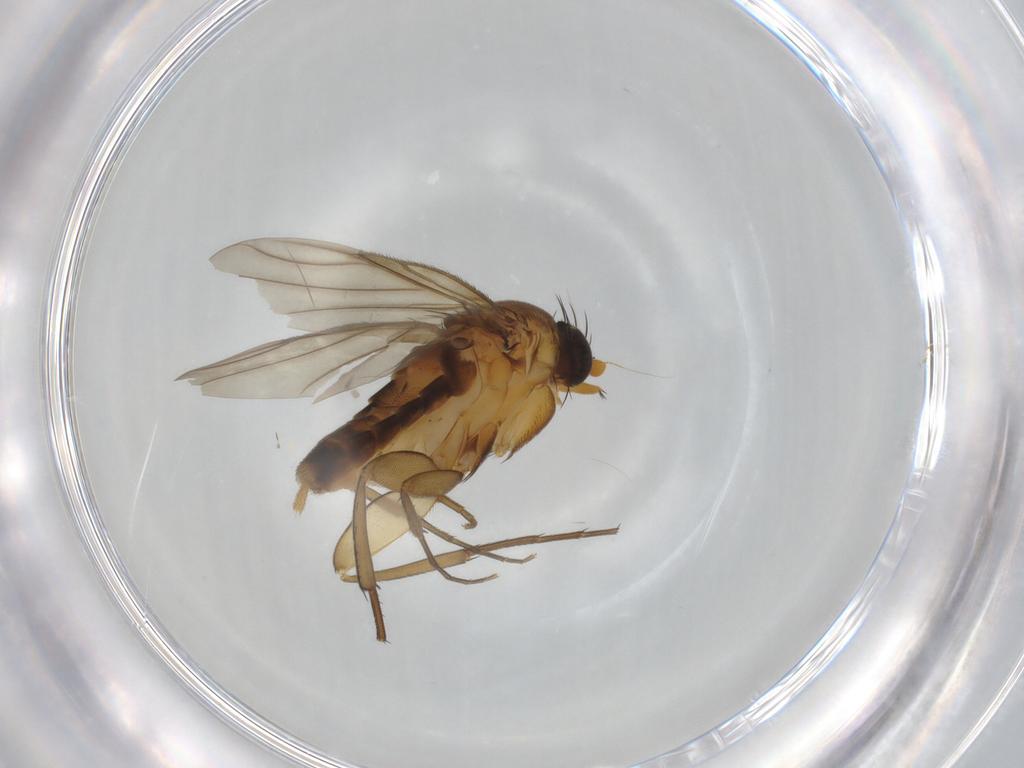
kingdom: Animalia
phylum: Arthropoda
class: Insecta
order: Diptera
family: Phoridae
